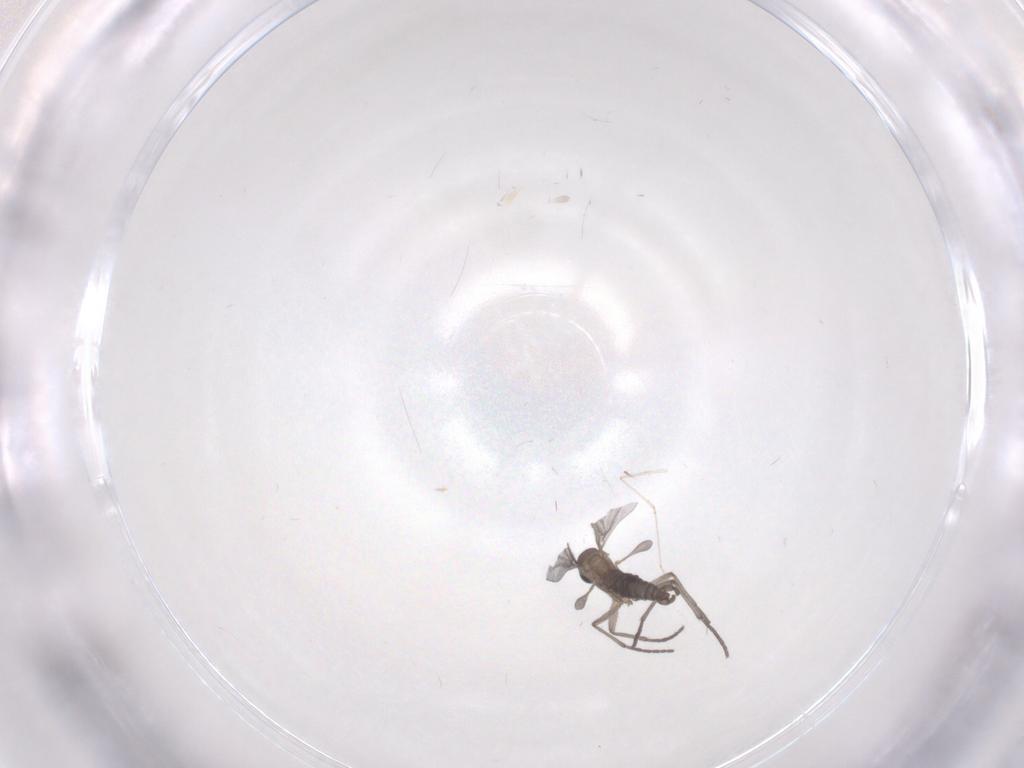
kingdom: Animalia
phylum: Arthropoda
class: Insecta
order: Diptera
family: Sciaridae
